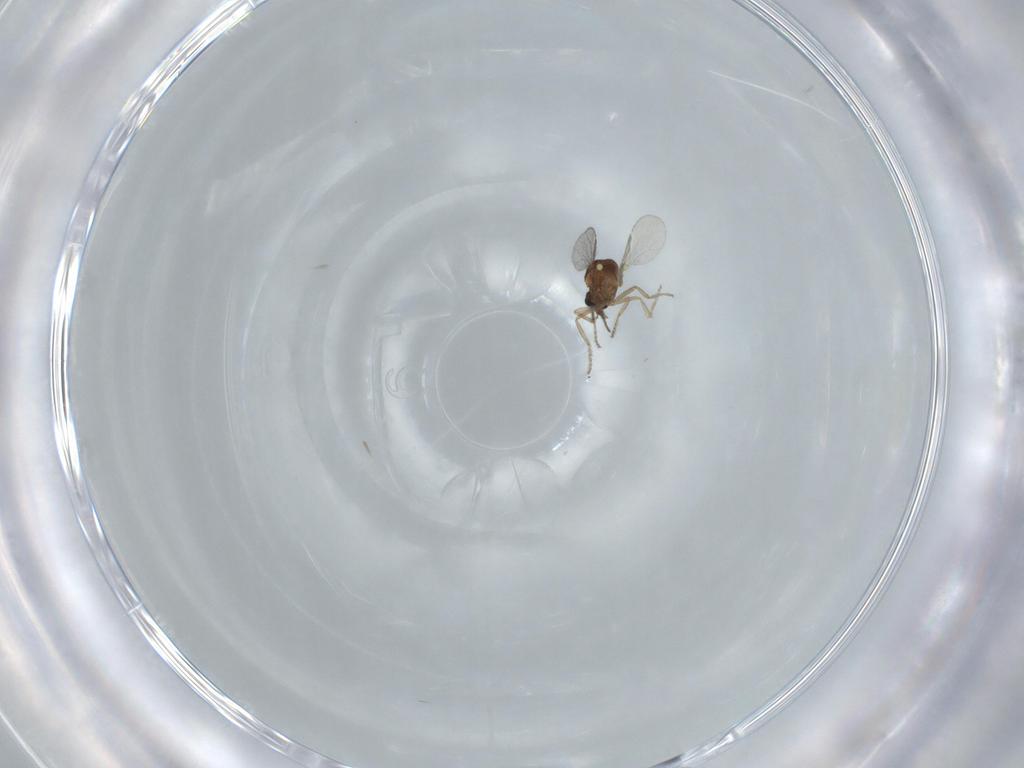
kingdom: Animalia
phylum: Arthropoda
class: Insecta
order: Diptera
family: Ceratopogonidae
